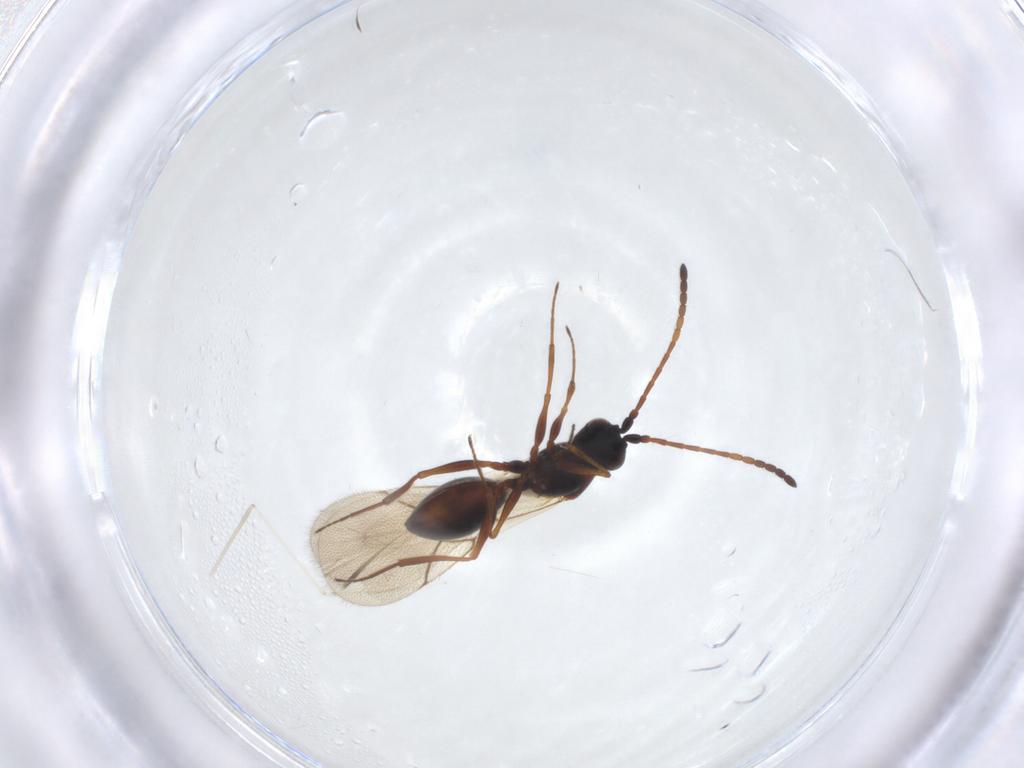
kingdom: Animalia
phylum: Arthropoda
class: Insecta
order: Hymenoptera
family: Figitidae
